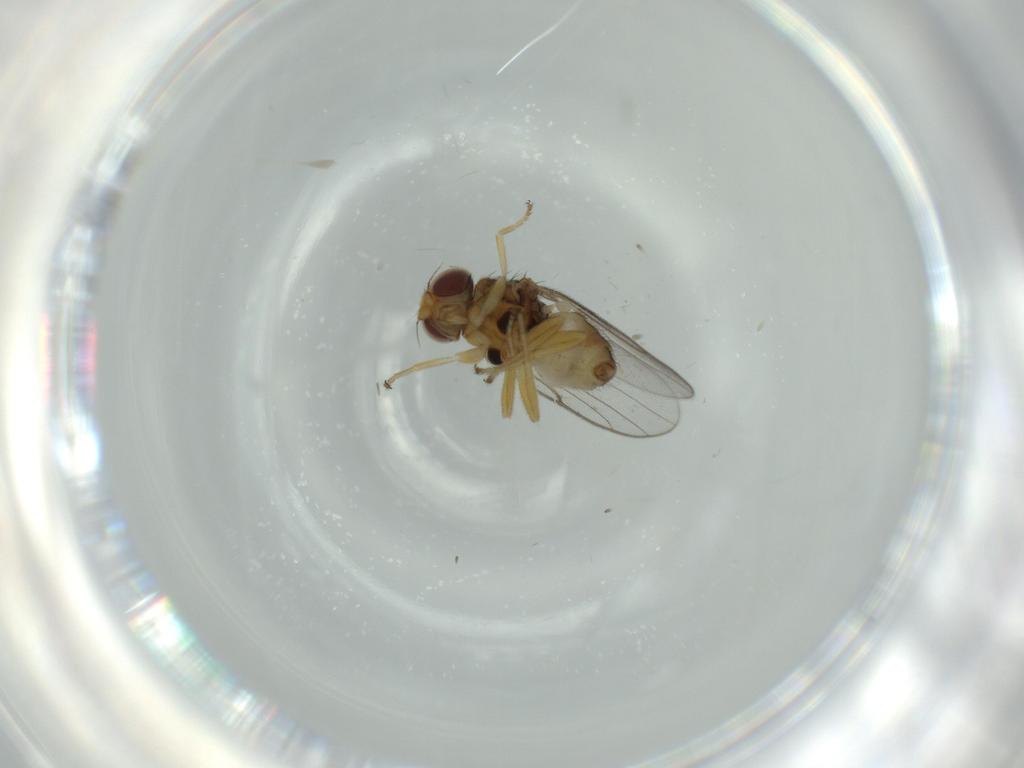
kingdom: Animalia
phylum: Arthropoda
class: Insecta
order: Diptera
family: Chloropidae
